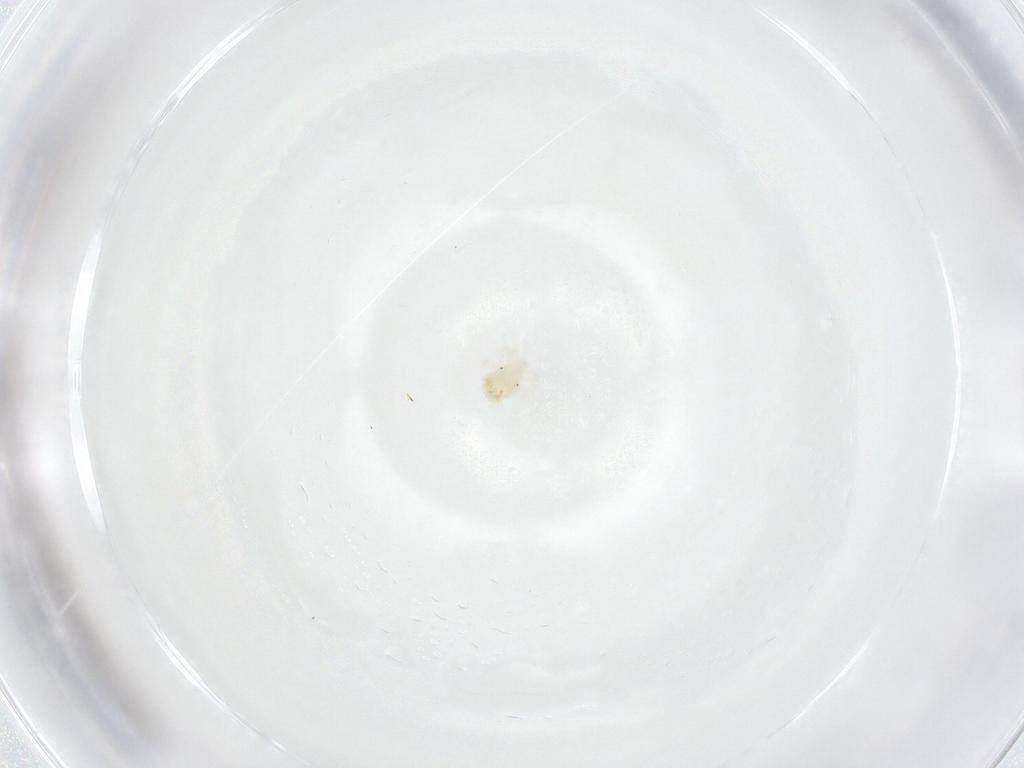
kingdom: Animalia
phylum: Arthropoda
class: Arachnida
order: Trombidiformes
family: Anystidae
